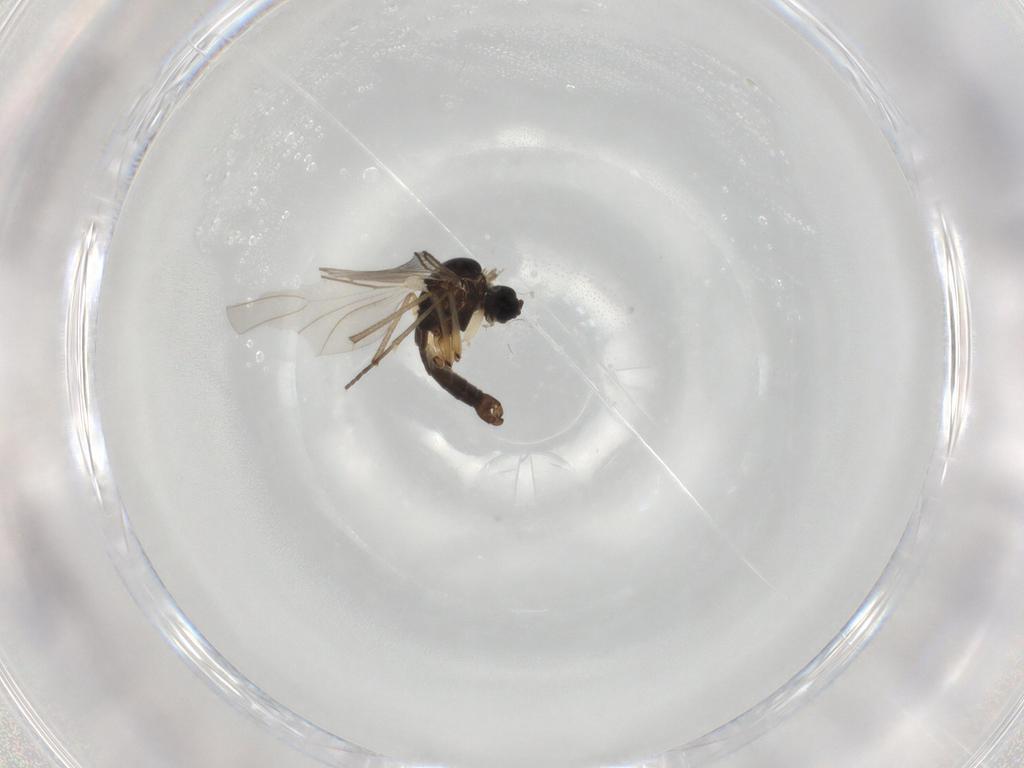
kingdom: Animalia
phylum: Arthropoda
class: Insecta
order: Diptera
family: Sciaridae
